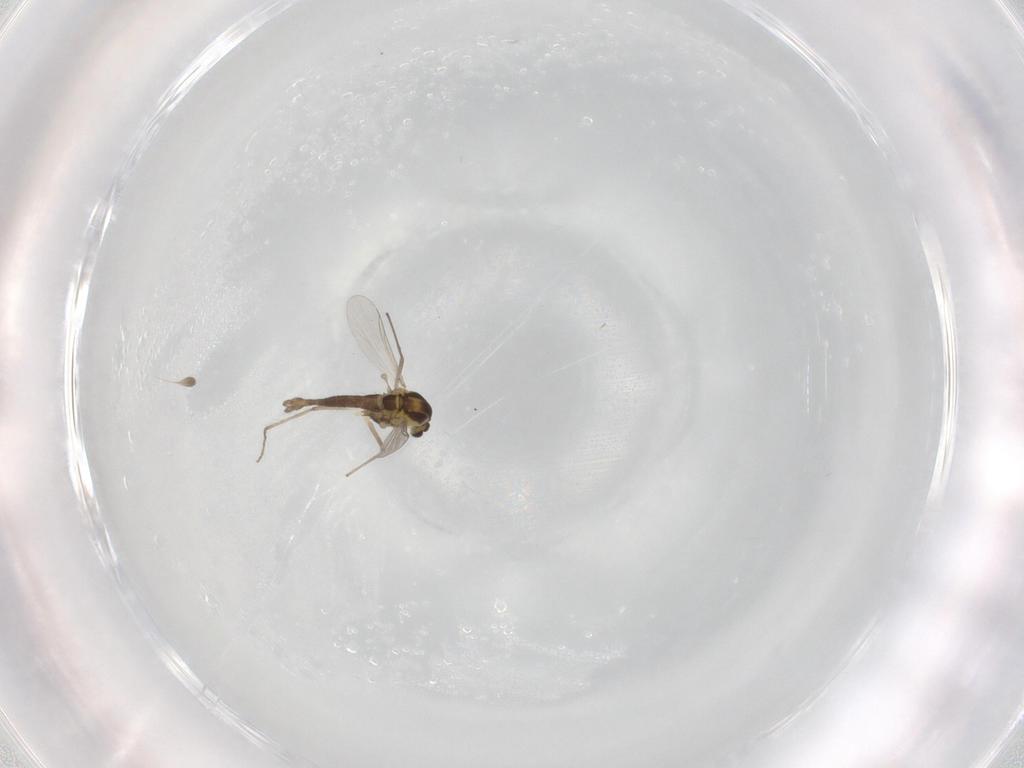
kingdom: Animalia
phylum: Arthropoda
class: Insecta
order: Diptera
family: Chironomidae
